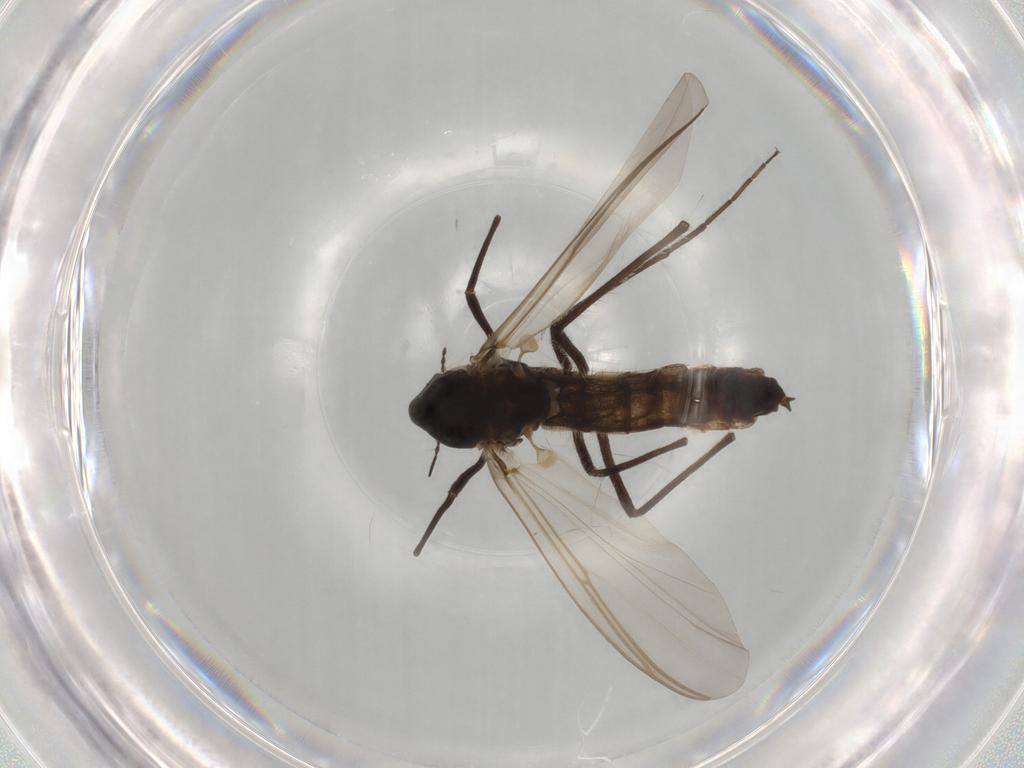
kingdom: Animalia
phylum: Arthropoda
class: Insecta
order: Diptera
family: Chironomidae
